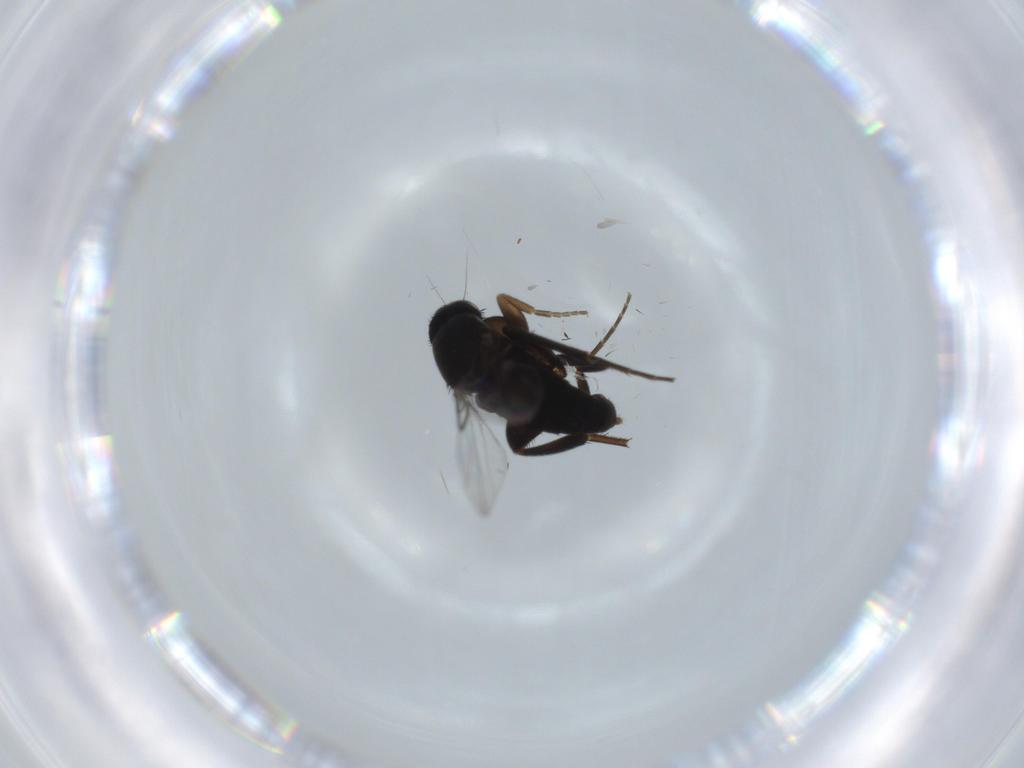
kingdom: Animalia
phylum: Arthropoda
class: Insecta
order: Diptera
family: Phoridae
